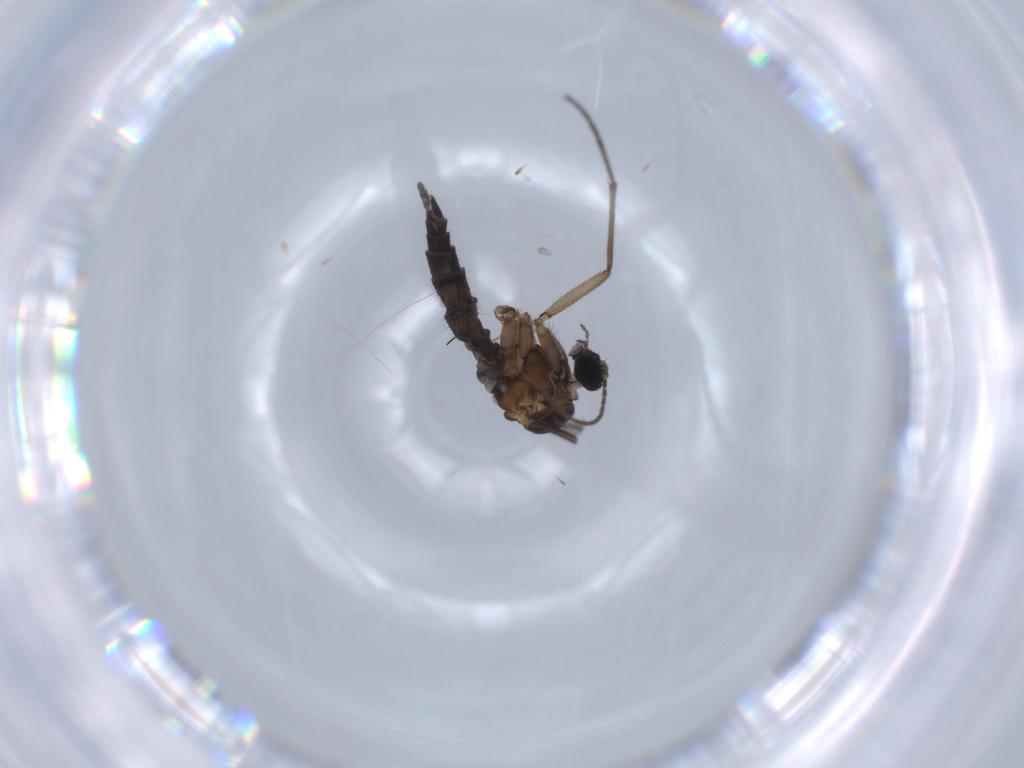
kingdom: Animalia
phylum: Arthropoda
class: Insecta
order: Diptera
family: Sciaridae
